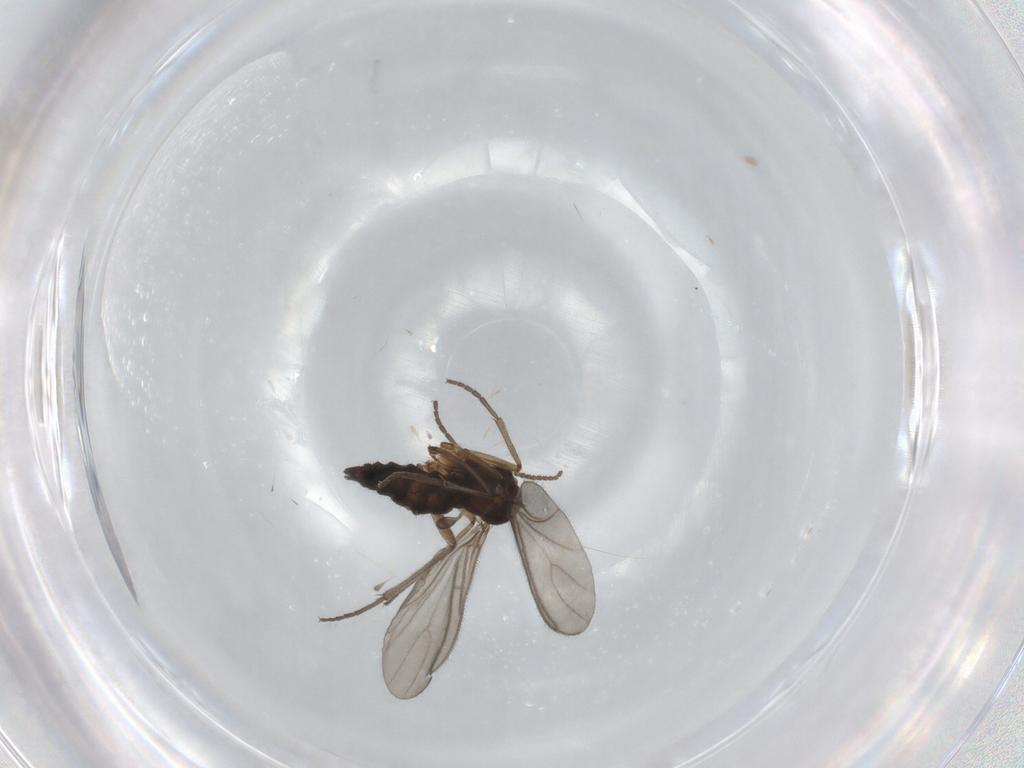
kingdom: Animalia
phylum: Arthropoda
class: Insecta
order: Diptera
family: Sciaridae
